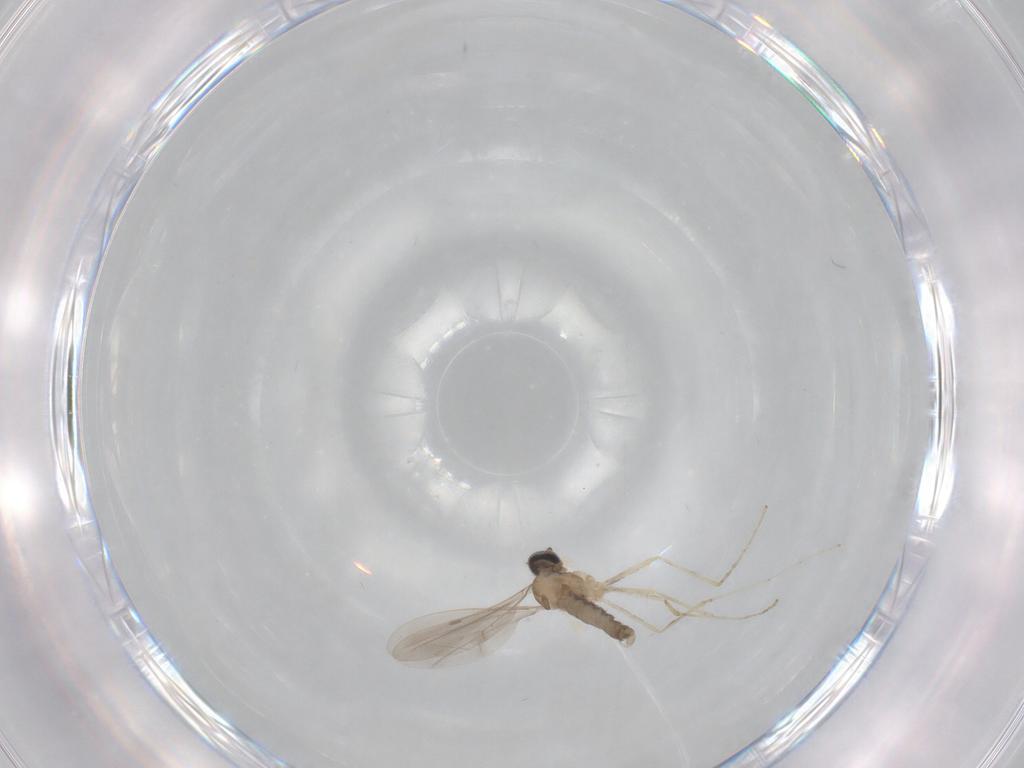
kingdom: Animalia
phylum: Arthropoda
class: Insecta
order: Diptera
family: Cecidomyiidae
